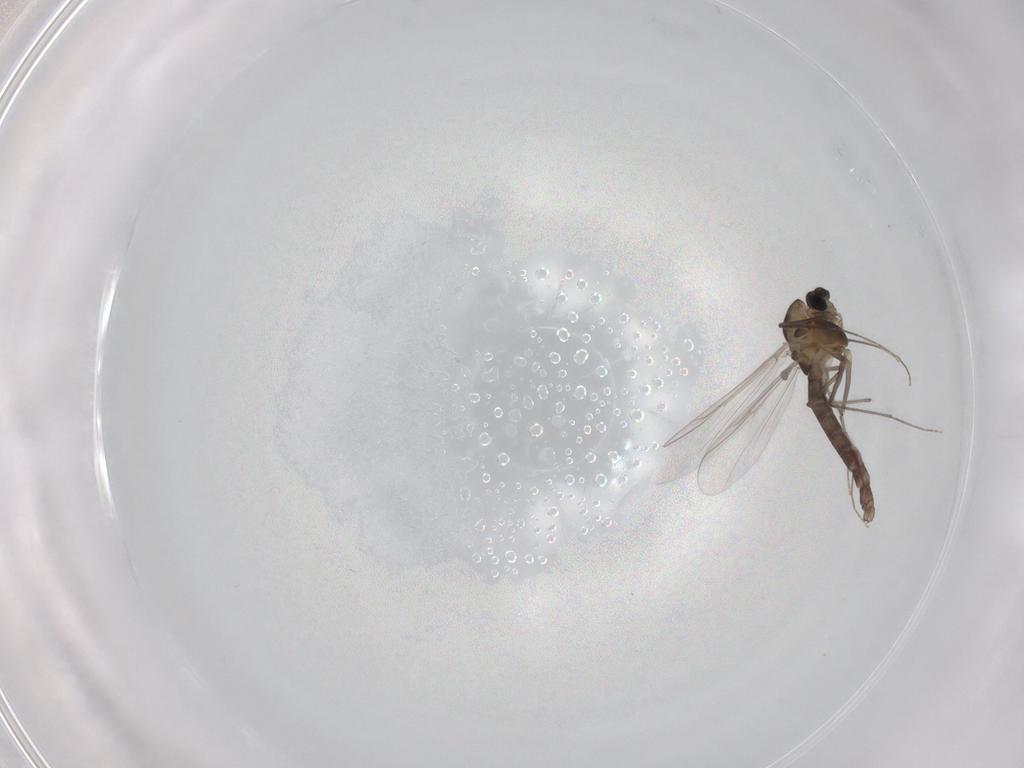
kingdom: Animalia
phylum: Arthropoda
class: Insecta
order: Diptera
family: Chironomidae
